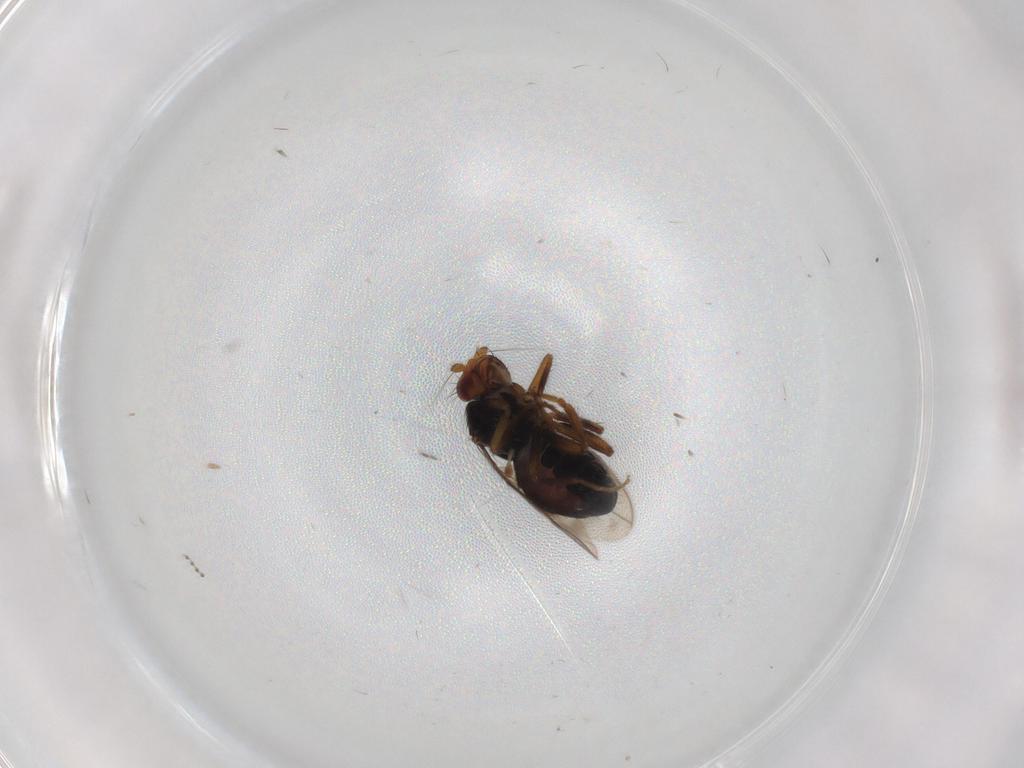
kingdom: Animalia
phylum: Arthropoda
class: Insecta
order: Diptera
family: Sphaeroceridae
